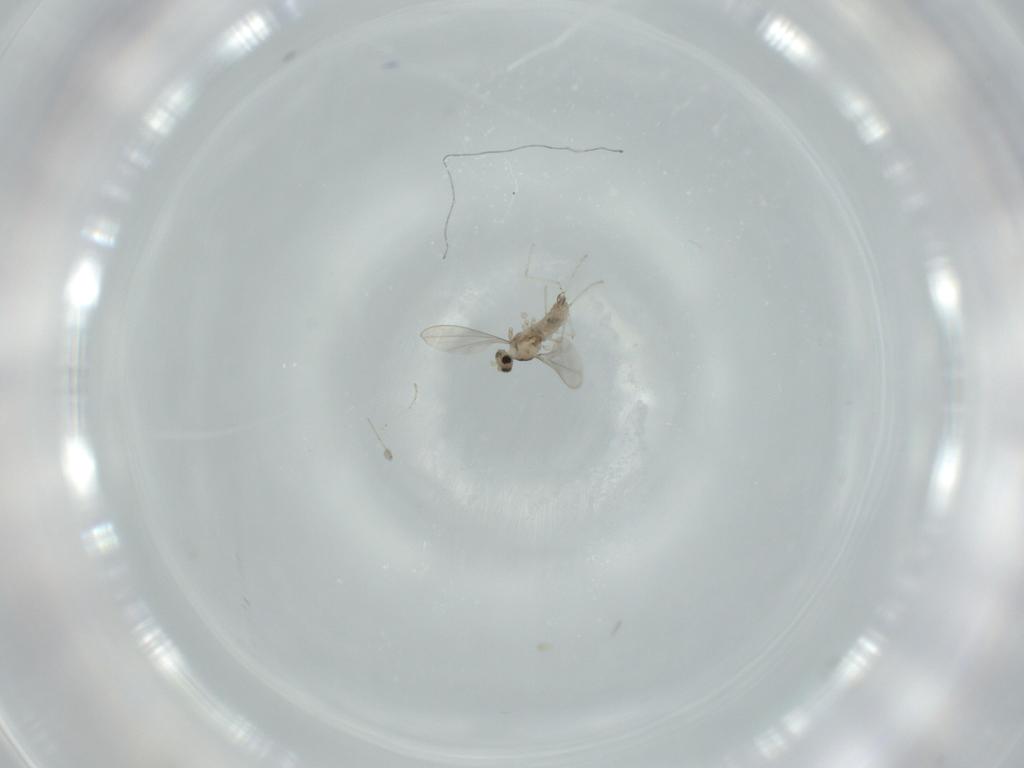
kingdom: Animalia
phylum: Arthropoda
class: Insecta
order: Diptera
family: Cecidomyiidae
